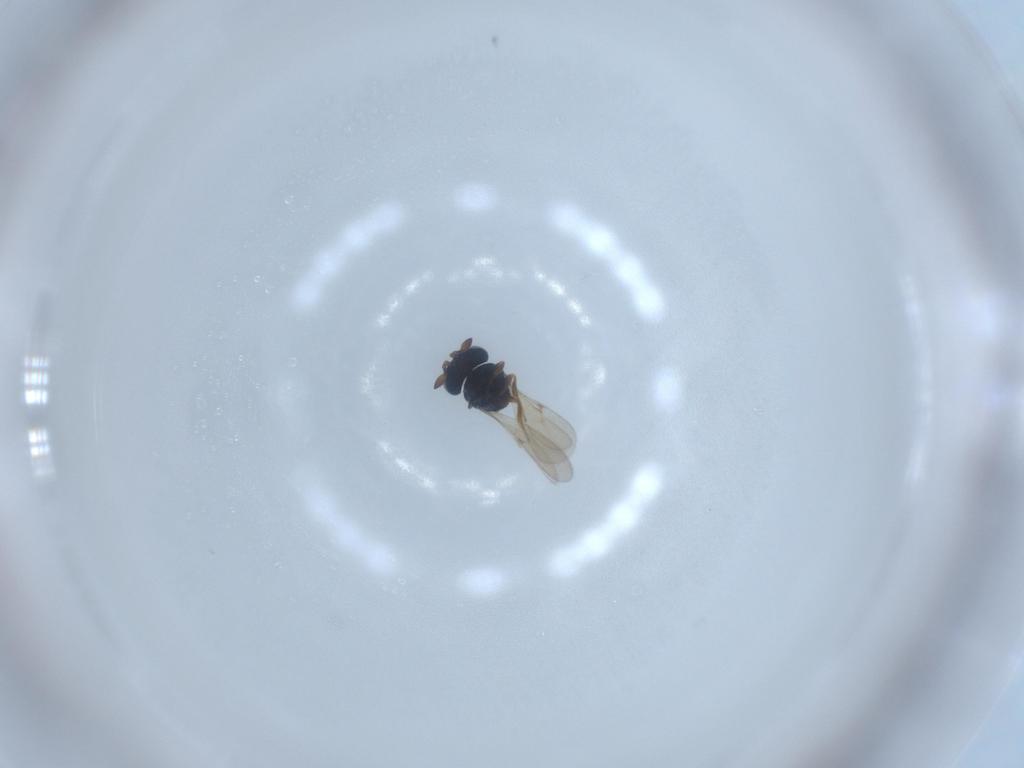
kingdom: Animalia
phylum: Arthropoda
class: Insecta
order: Hymenoptera
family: Scelionidae
